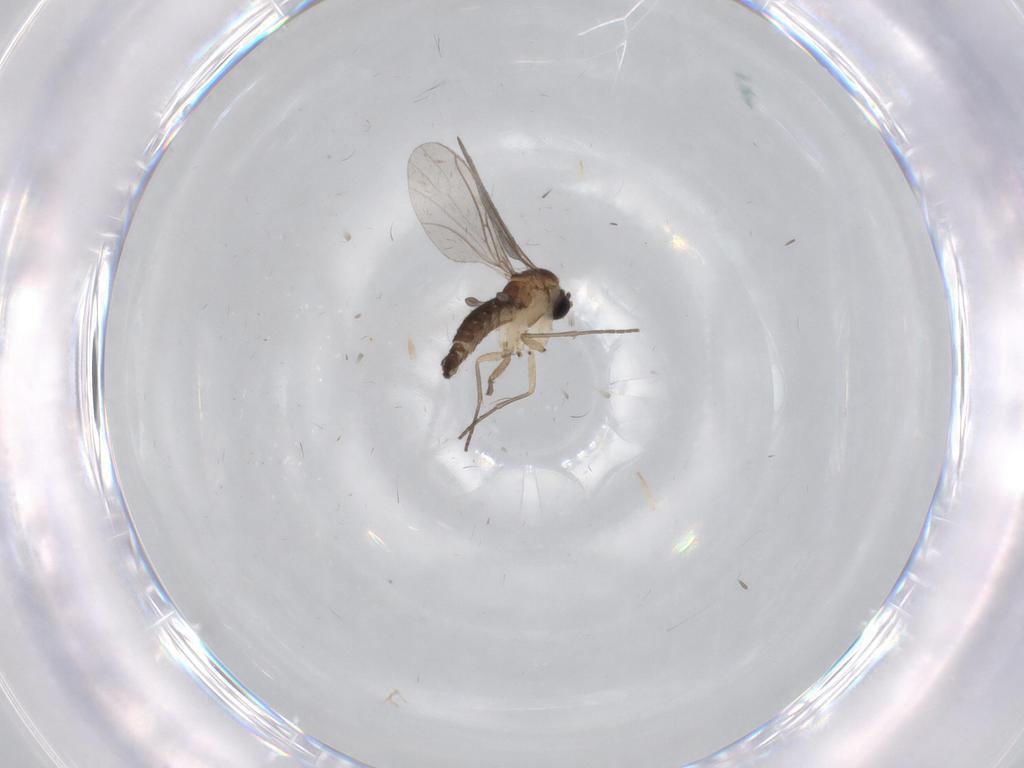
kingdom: Animalia
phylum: Arthropoda
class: Insecta
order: Diptera
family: Sciaridae
